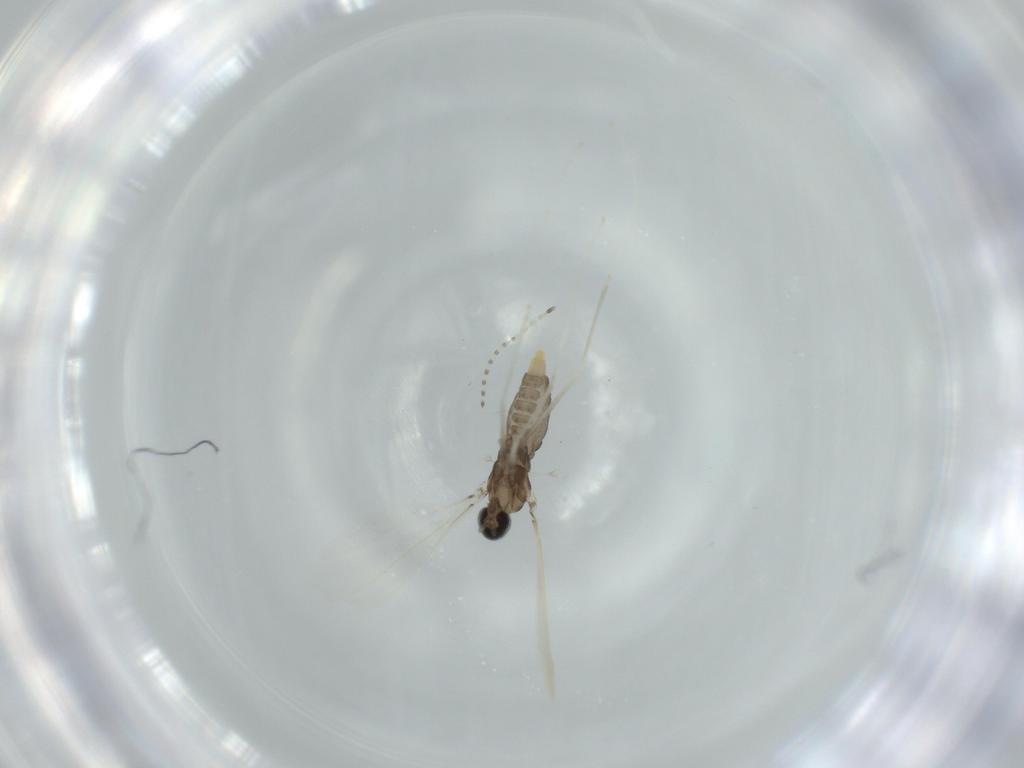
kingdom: Animalia
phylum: Arthropoda
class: Insecta
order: Diptera
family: Cecidomyiidae
